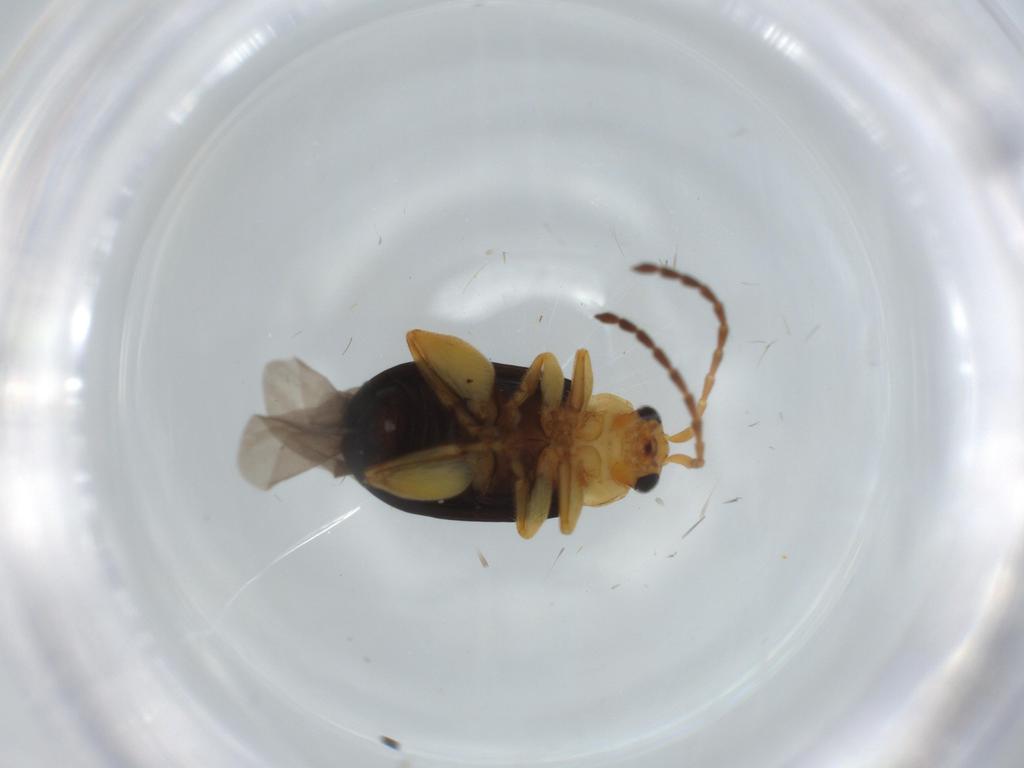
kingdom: Animalia
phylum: Arthropoda
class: Insecta
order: Coleoptera
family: Chrysomelidae
